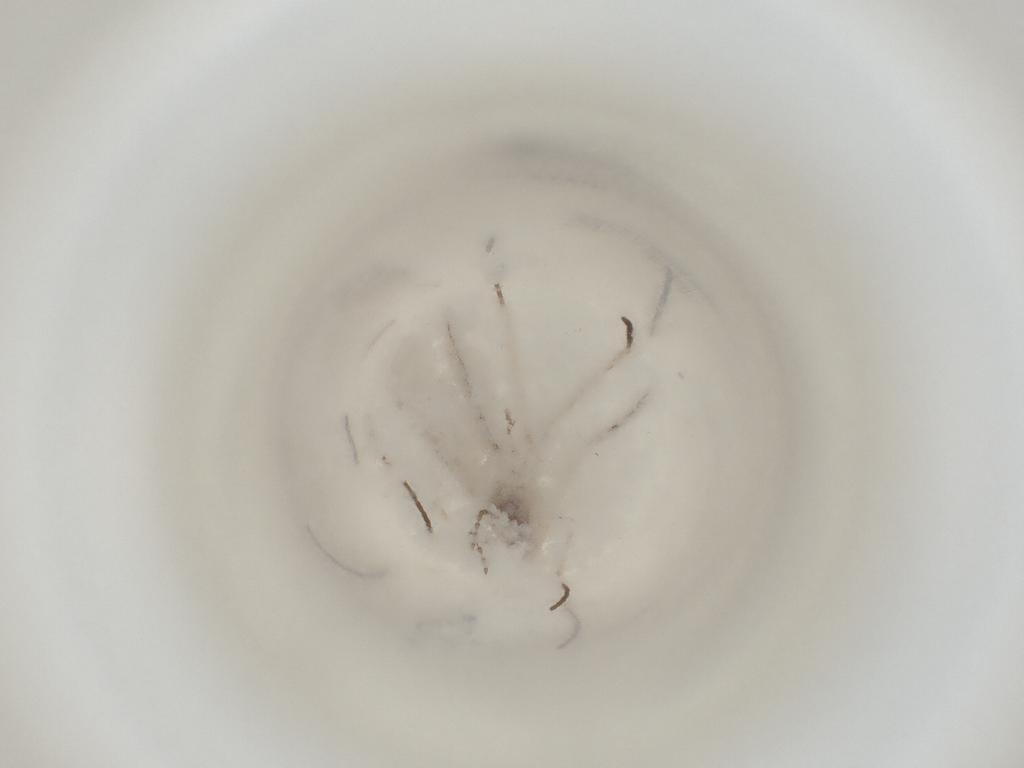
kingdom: Animalia
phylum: Arthropoda
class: Insecta
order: Diptera
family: Cecidomyiidae
